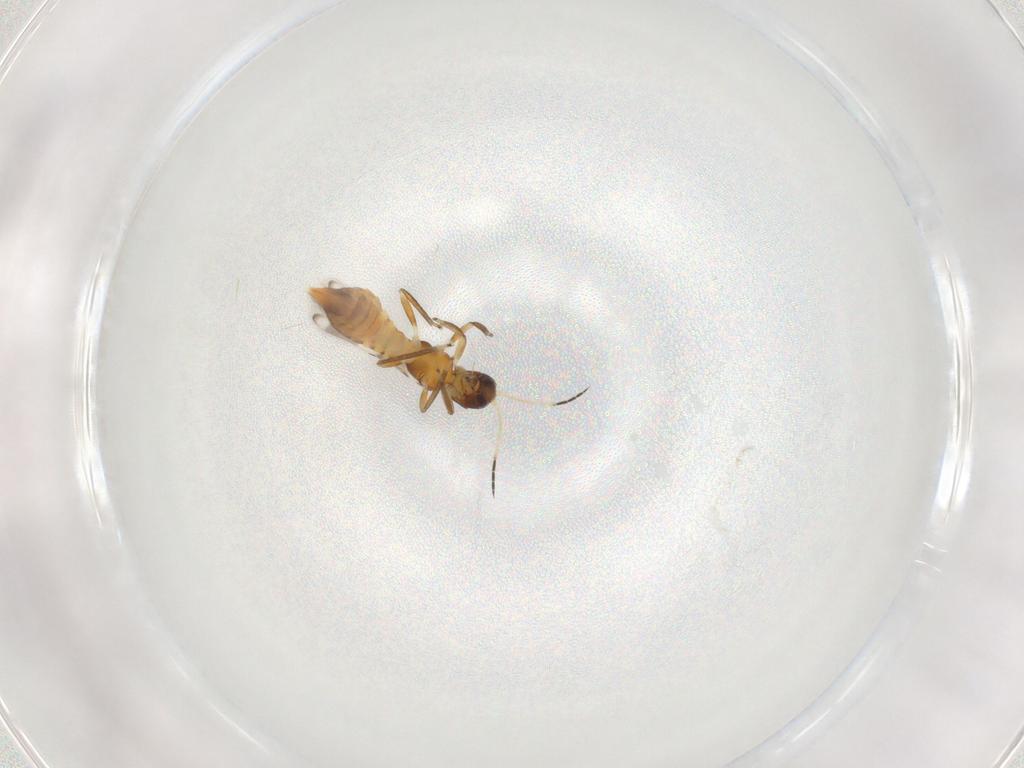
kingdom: Animalia
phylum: Arthropoda
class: Insecta
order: Thysanoptera
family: Aeolothripidae
